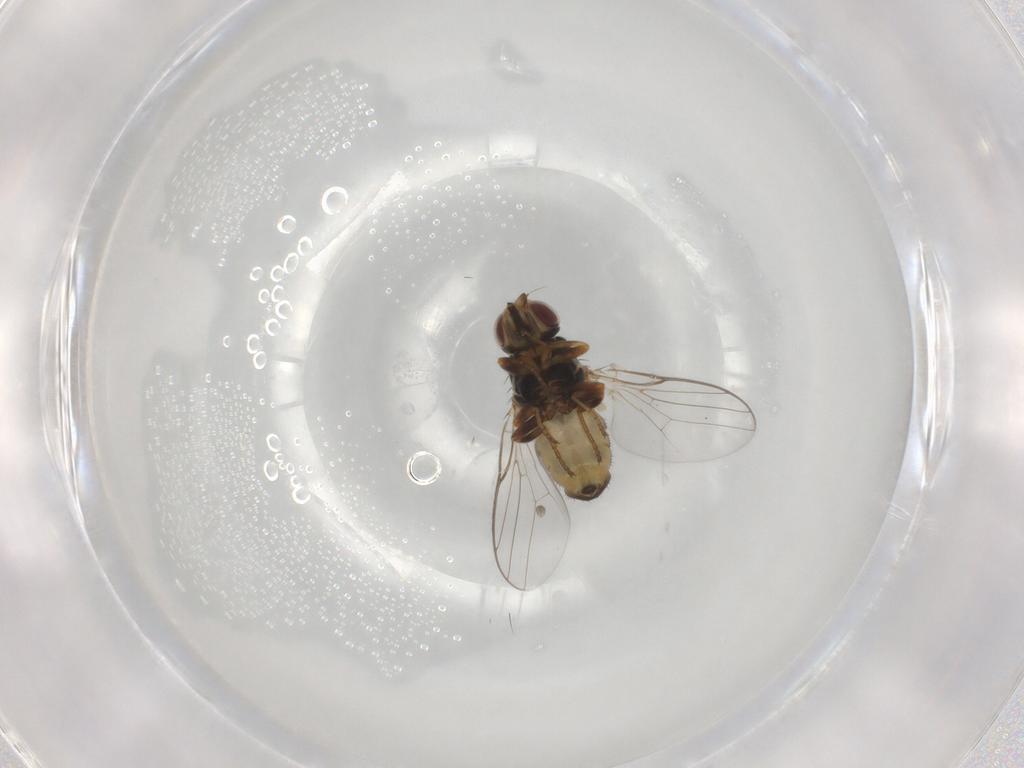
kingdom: Animalia
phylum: Arthropoda
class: Insecta
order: Diptera
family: Chloropidae
